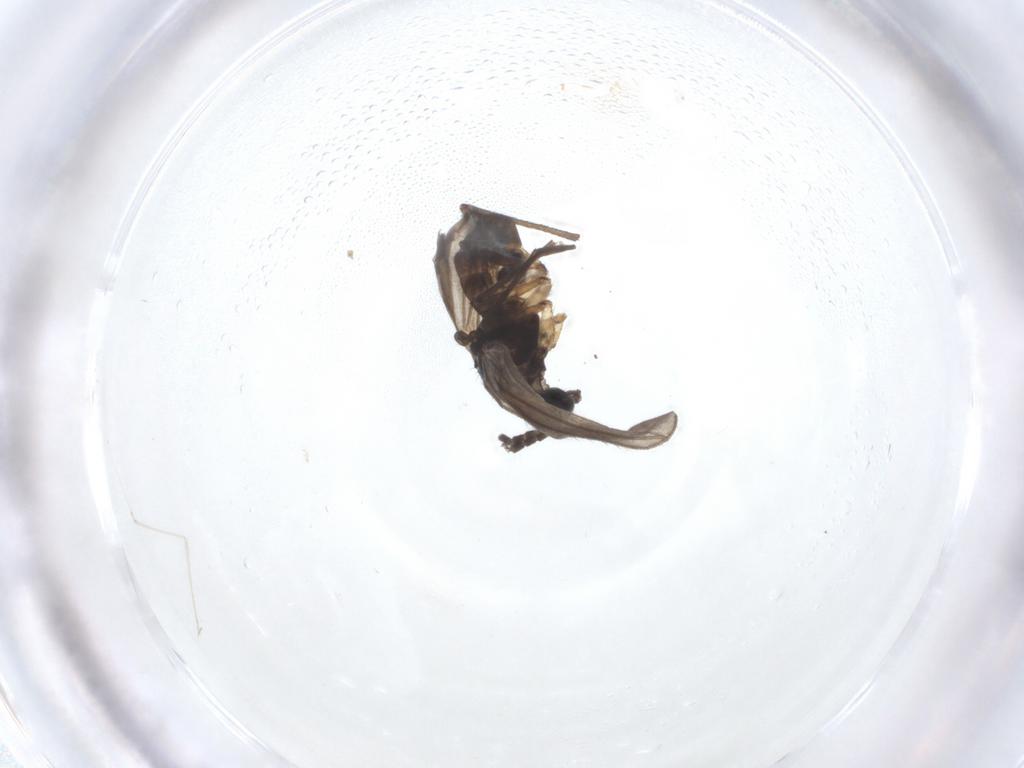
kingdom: Animalia
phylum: Arthropoda
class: Insecta
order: Diptera
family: Sciaridae
